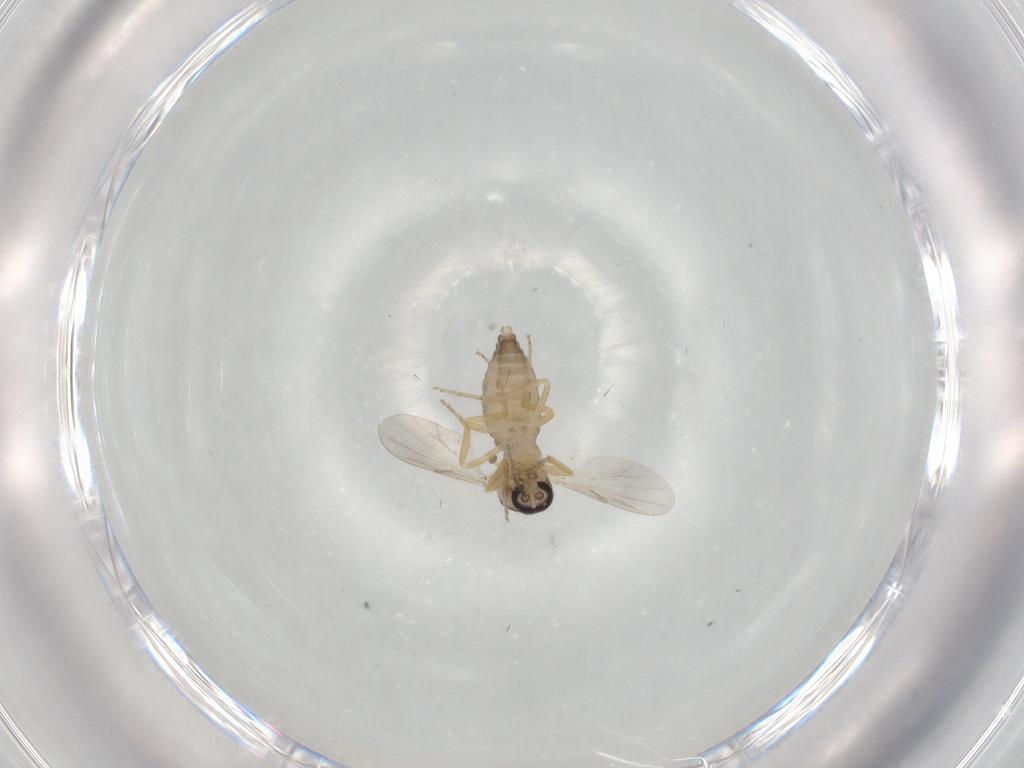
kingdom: Animalia
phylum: Arthropoda
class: Insecta
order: Diptera
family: Ceratopogonidae
